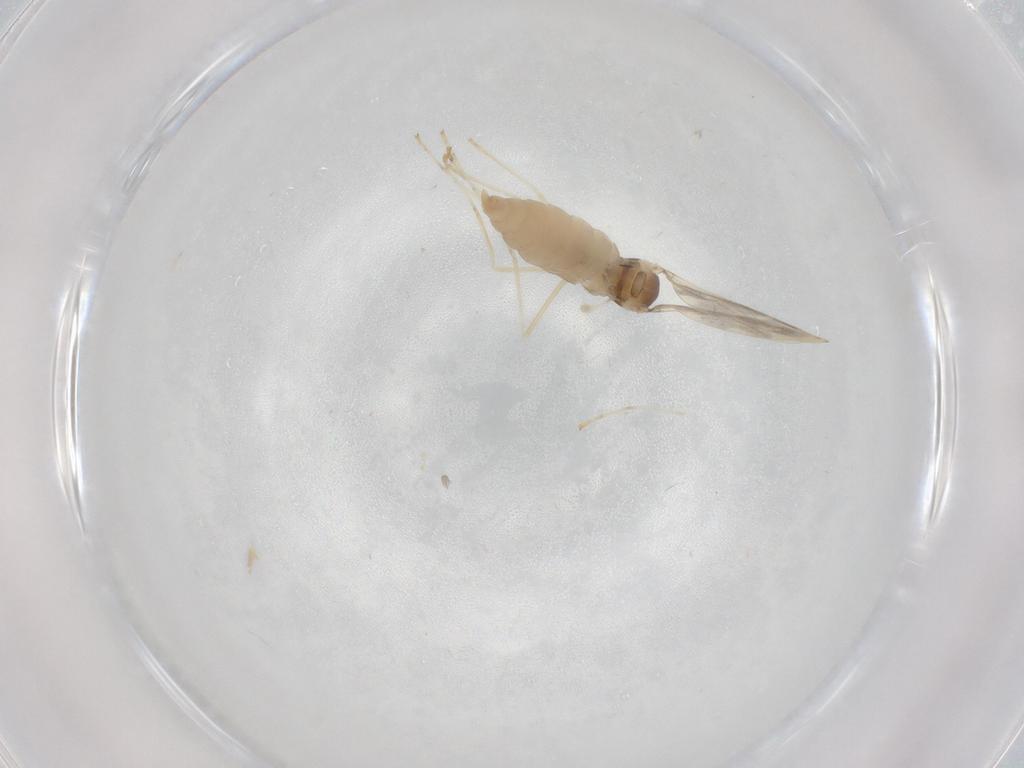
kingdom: Animalia
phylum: Arthropoda
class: Insecta
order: Diptera
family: Cecidomyiidae
